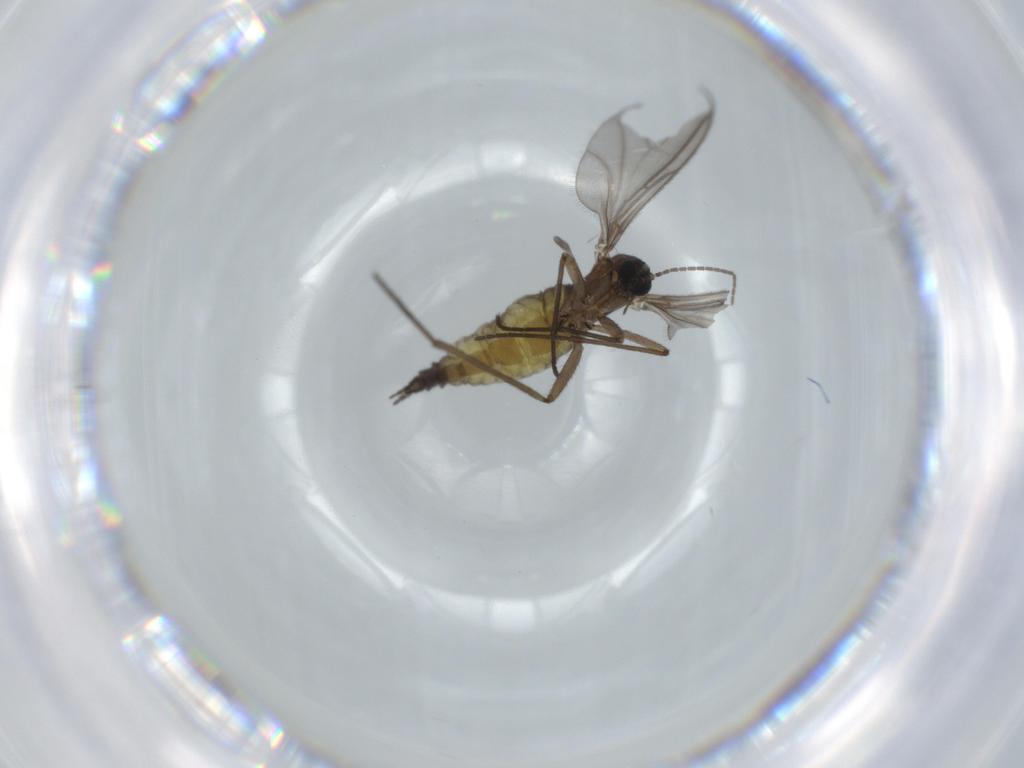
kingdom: Animalia
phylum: Arthropoda
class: Insecta
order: Diptera
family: Sciaridae
